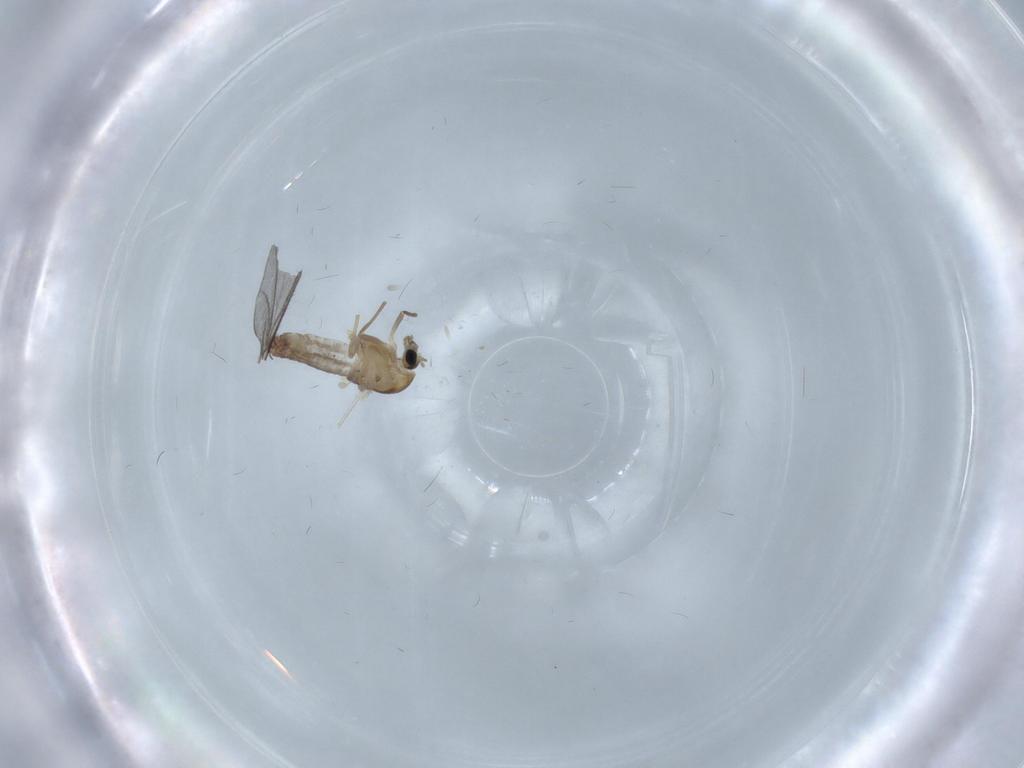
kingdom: Animalia
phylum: Arthropoda
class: Insecta
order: Diptera
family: Chironomidae
